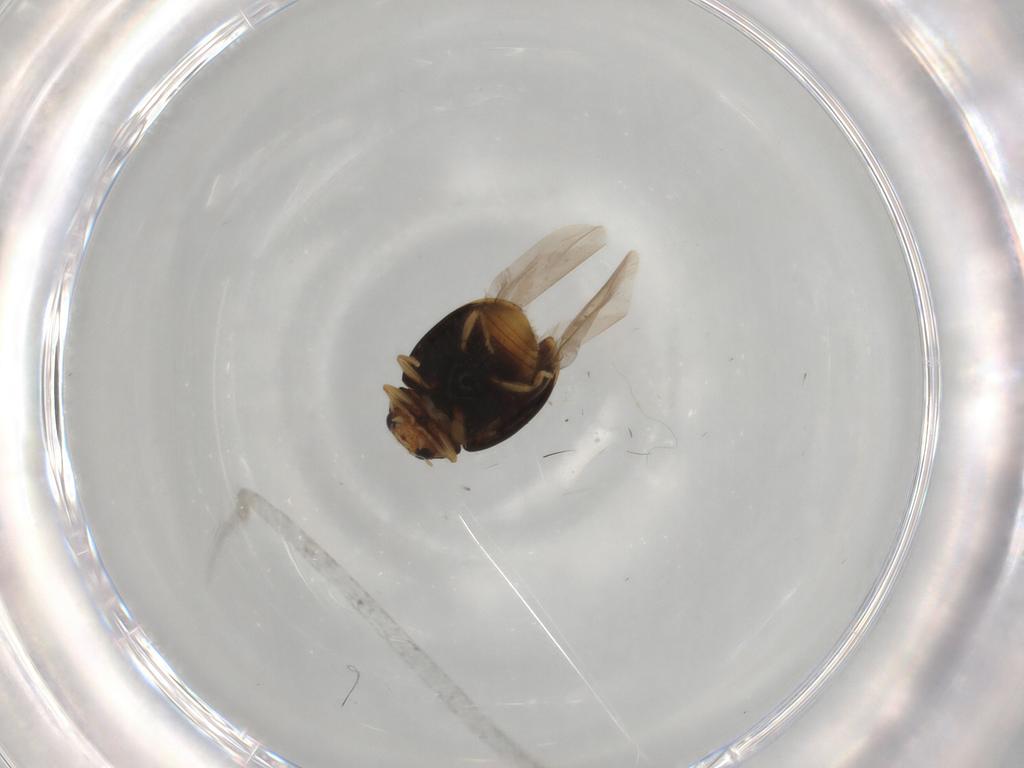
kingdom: Animalia
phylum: Arthropoda
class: Insecta
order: Coleoptera
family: Coccinellidae
